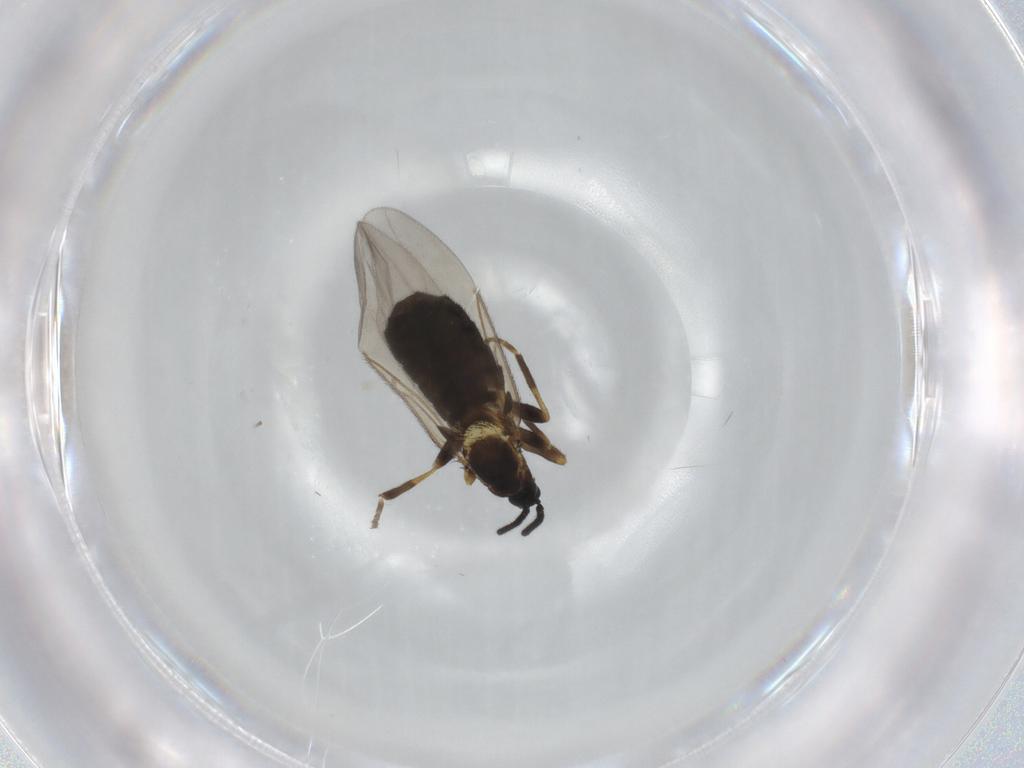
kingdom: Animalia
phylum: Arthropoda
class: Insecta
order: Diptera
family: Scatopsidae
